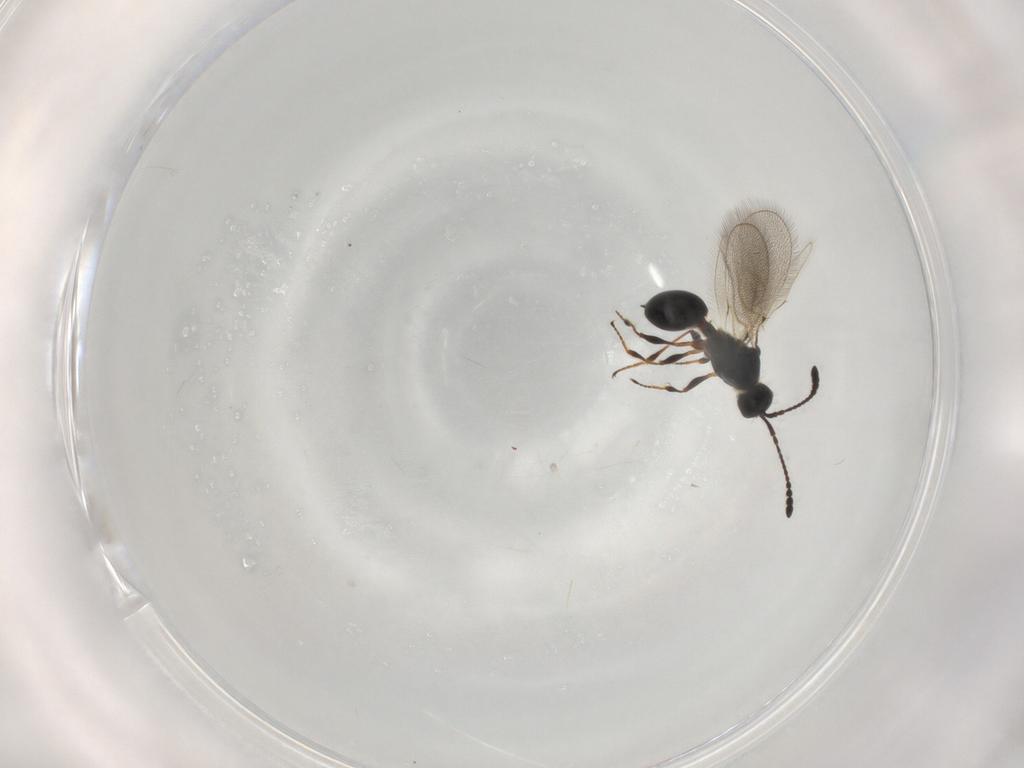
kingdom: Animalia
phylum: Arthropoda
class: Insecta
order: Hymenoptera
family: Diapriidae
